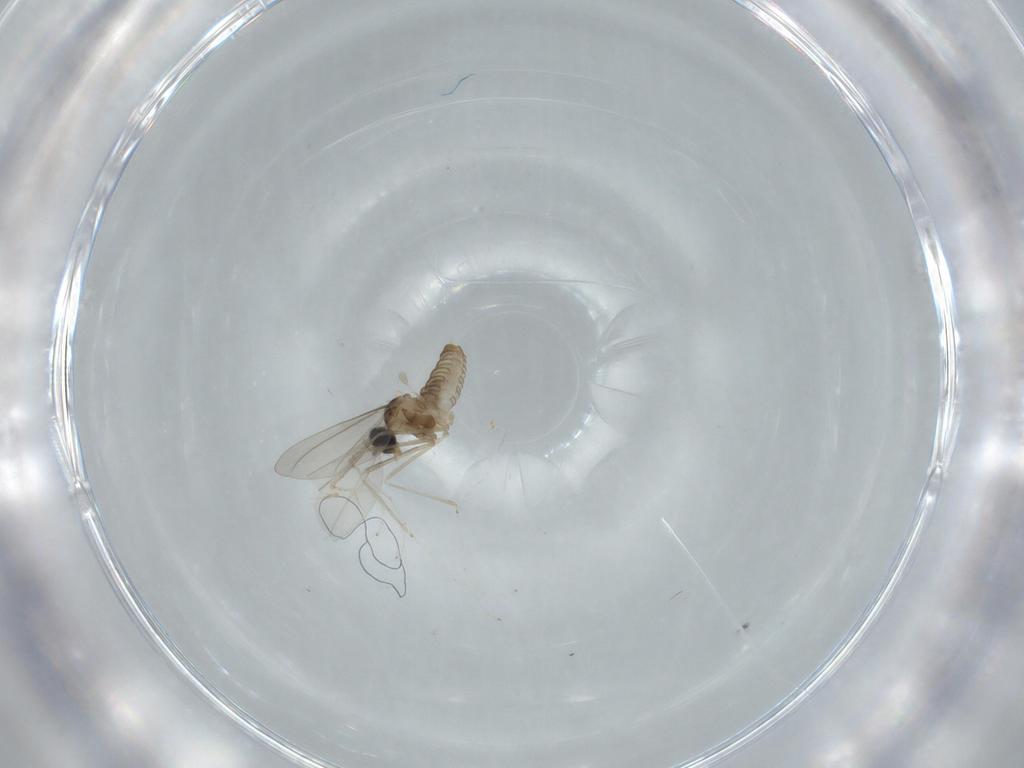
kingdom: Animalia
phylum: Arthropoda
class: Insecta
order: Diptera
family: Cecidomyiidae
